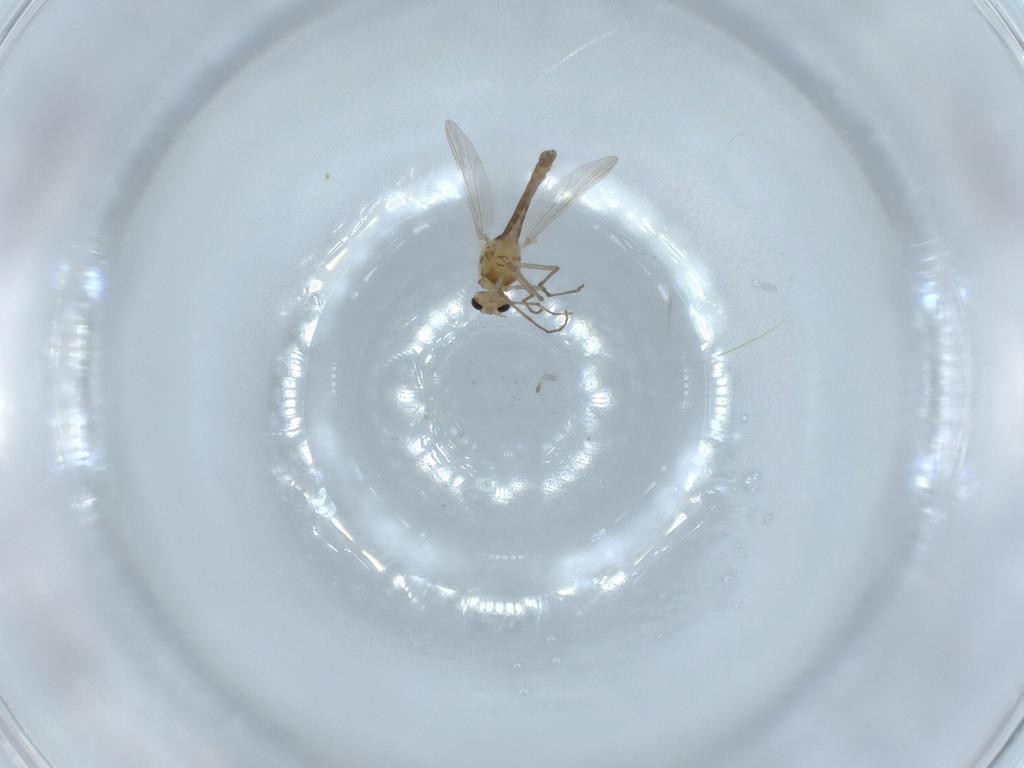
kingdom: Animalia
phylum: Arthropoda
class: Insecta
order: Diptera
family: Chironomidae
